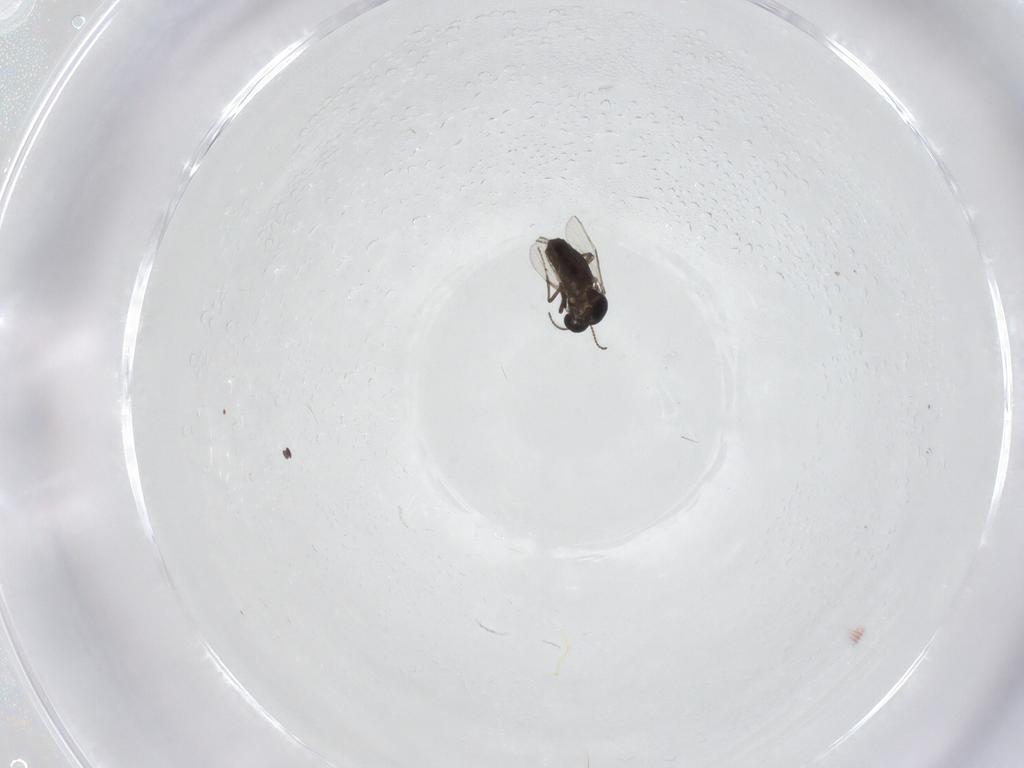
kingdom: Animalia
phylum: Arthropoda
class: Insecta
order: Diptera
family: Ceratopogonidae
